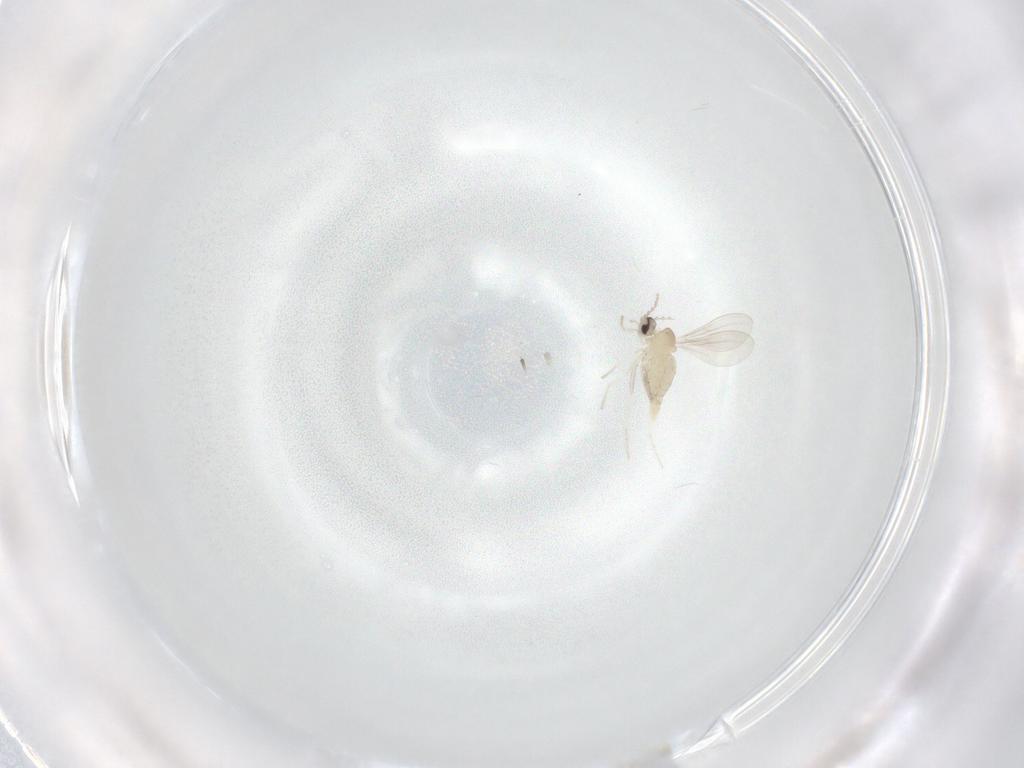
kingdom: Animalia
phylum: Arthropoda
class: Insecta
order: Diptera
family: Cecidomyiidae
